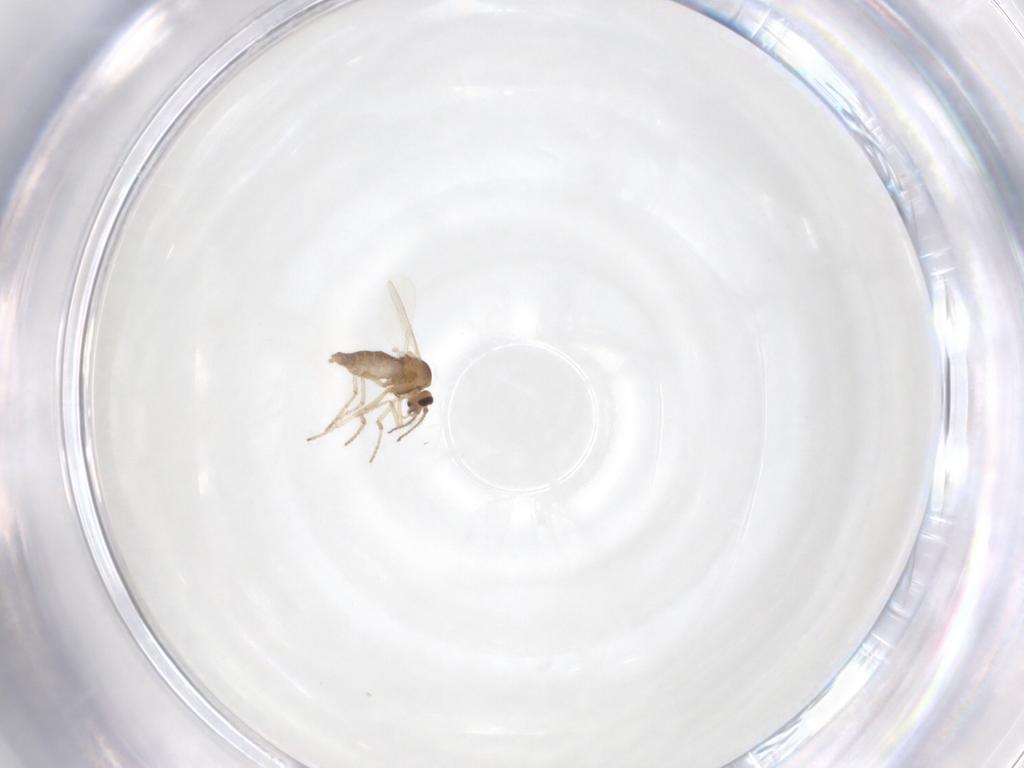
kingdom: Animalia
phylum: Arthropoda
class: Insecta
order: Diptera
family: Ceratopogonidae
